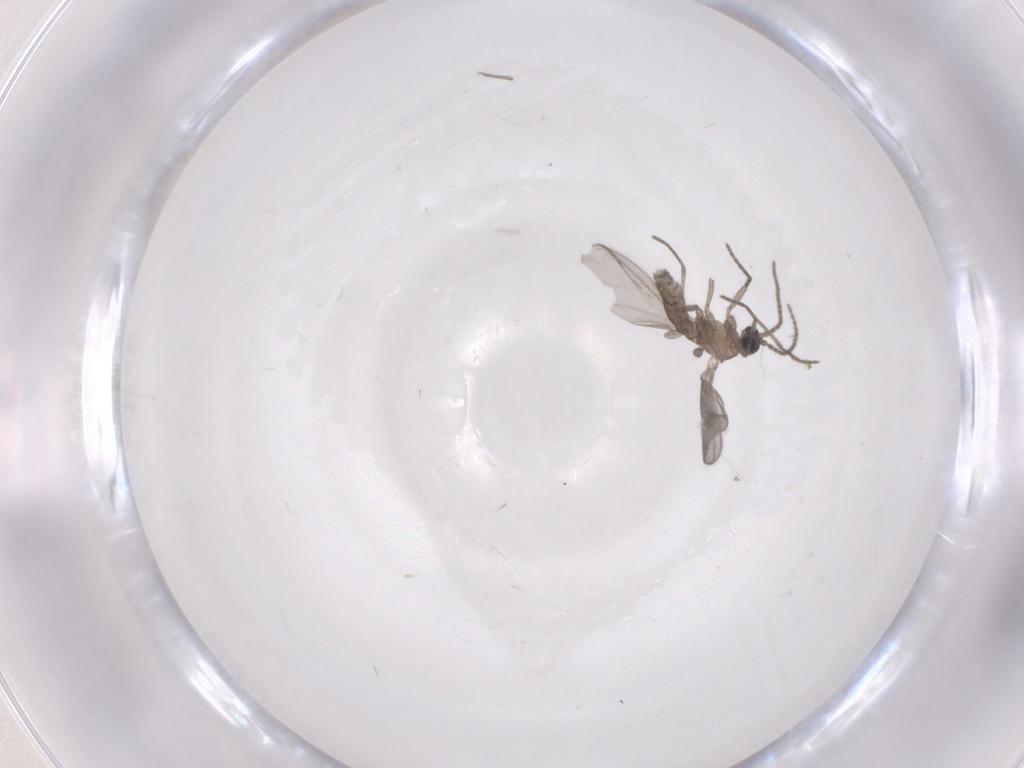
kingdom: Animalia
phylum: Arthropoda
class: Insecta
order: Diptera
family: Sciaridae
